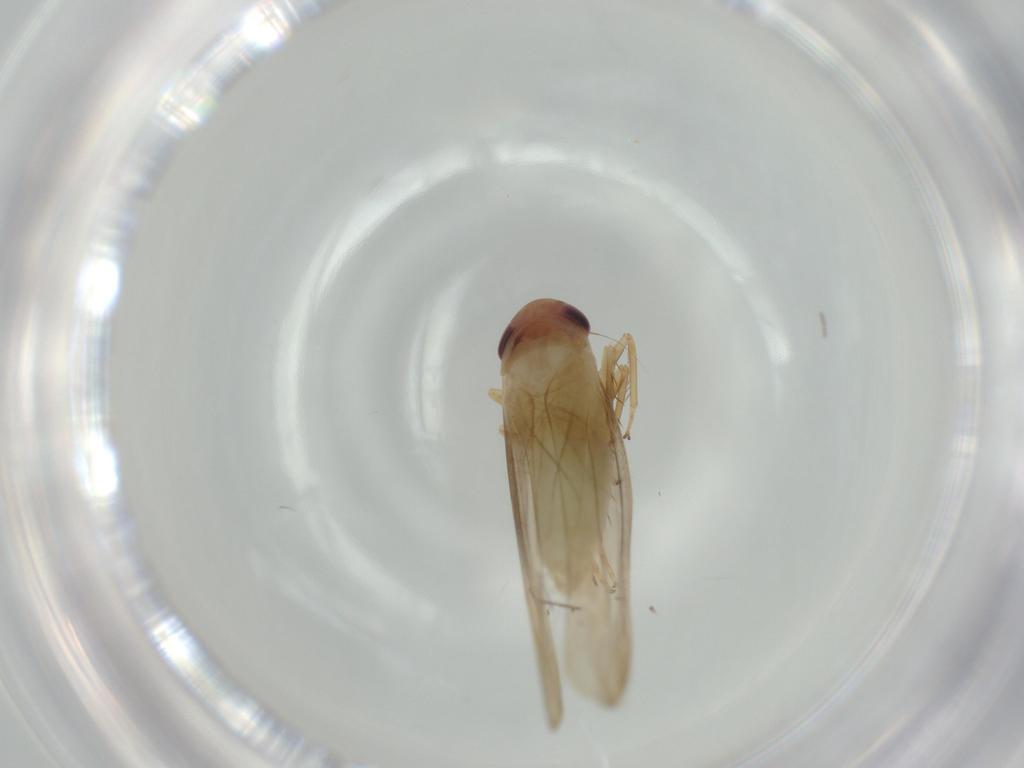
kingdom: Animalia
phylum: Arthropoda
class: Insecta
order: Hemiptera
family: Cicadellidae
